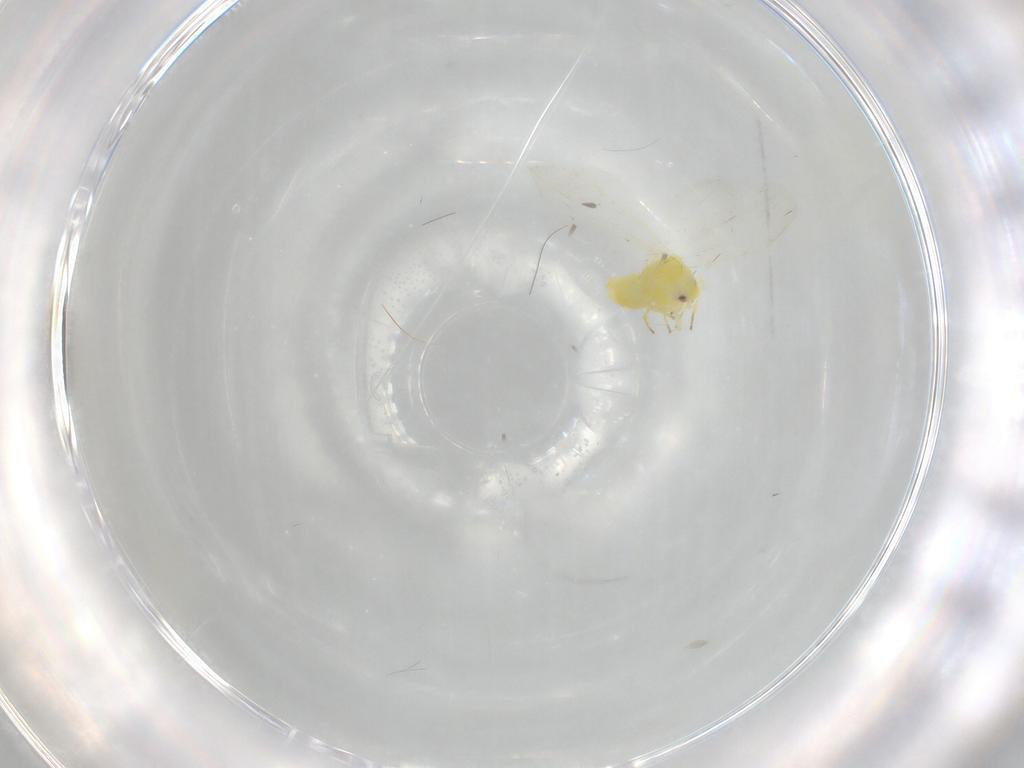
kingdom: Animalia
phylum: Arthropoda
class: Insecta
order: Hemiptera
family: Aleyrodidae
